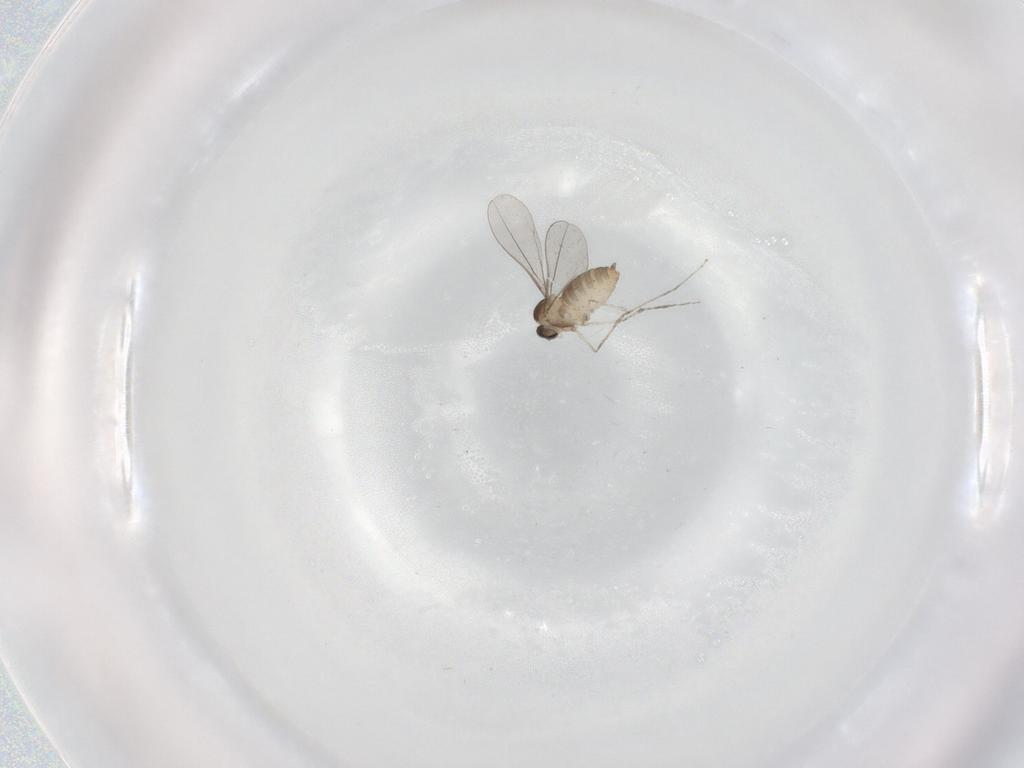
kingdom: Animalia
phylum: Arthropoda
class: Insecta
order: Diptera
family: Cecidomyiidae
